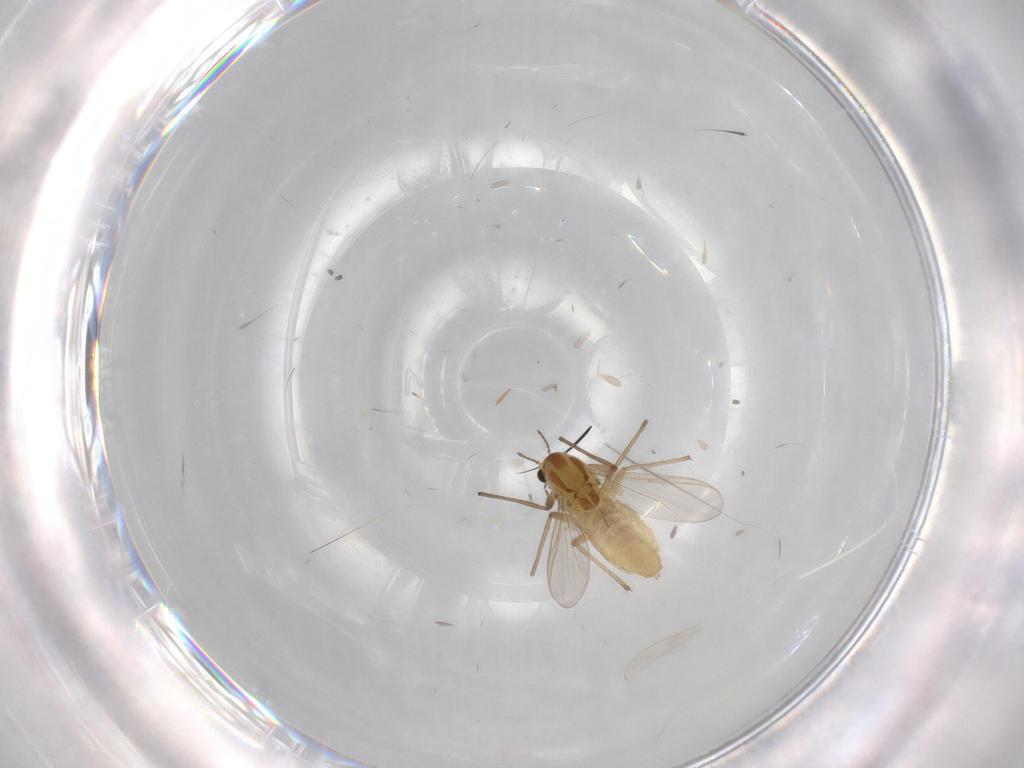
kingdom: Animalia
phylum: Arthropoda
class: Insecta
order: Diptera
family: Chironomidae
